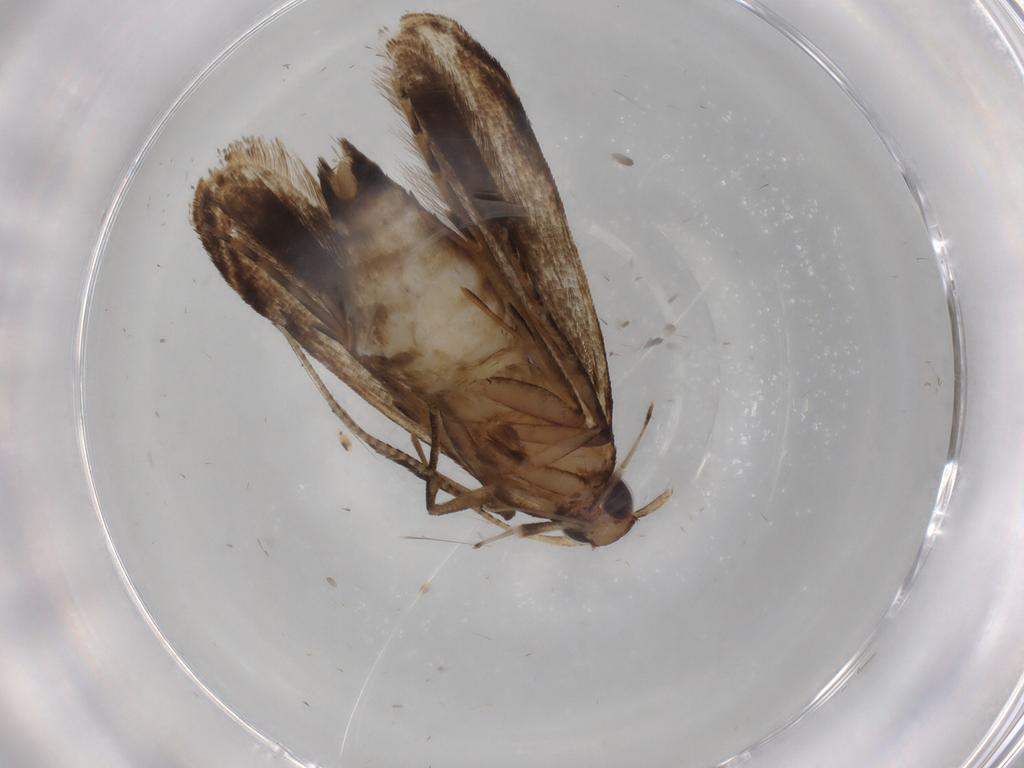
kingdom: Animalia
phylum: Arthropoda
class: Insecta
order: Lepidoptera
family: Gelechiidae
